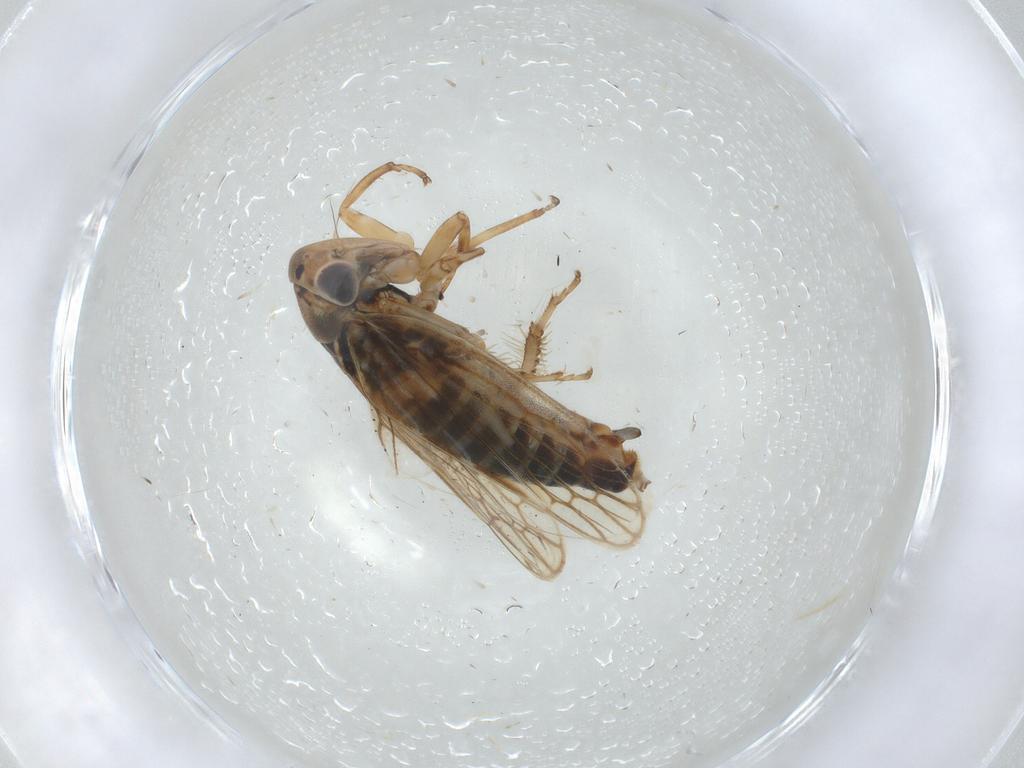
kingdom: Animalia
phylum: Arthropoda
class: Insecta
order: Hemiptera
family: Cicadellidae
